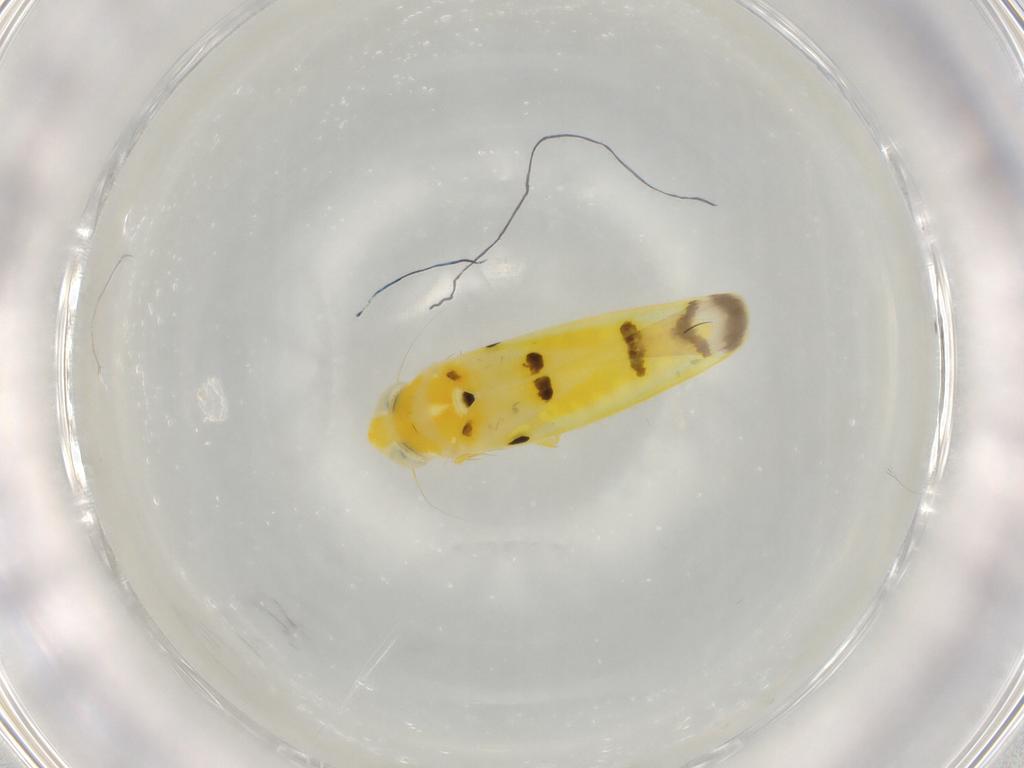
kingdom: Animalia
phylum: Arthropoda
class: Insecta
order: Hemiptera
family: Cicadellidae
